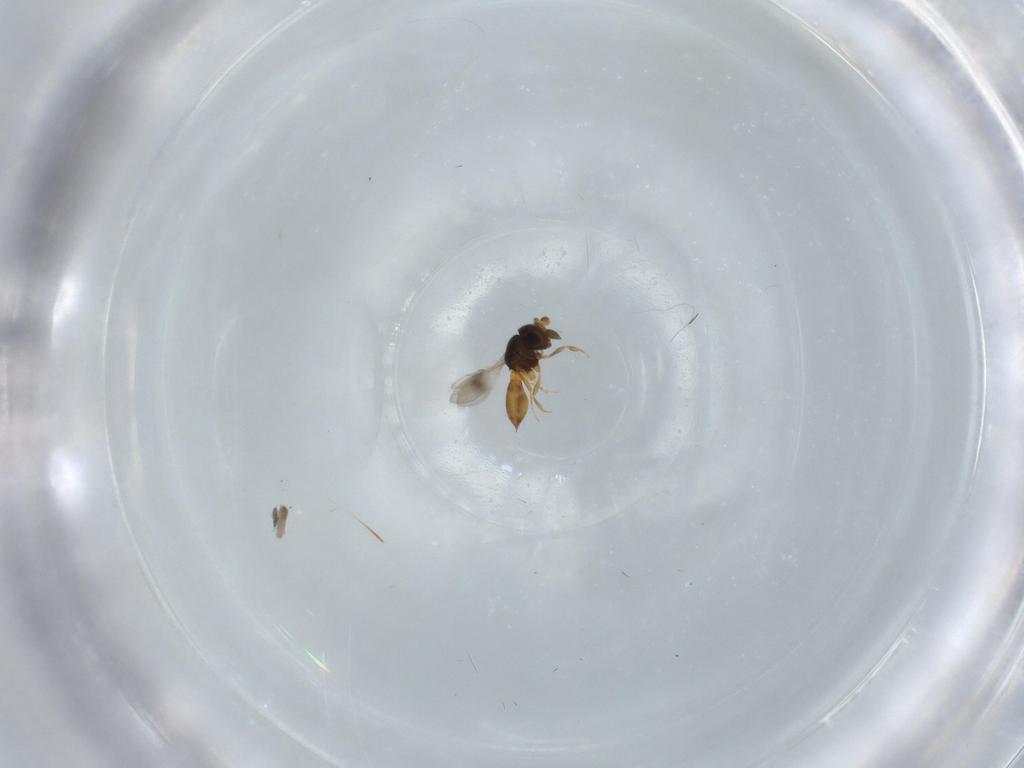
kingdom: Animalia
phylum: Arthropoda
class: Insecta
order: Hymenoptera
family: Scelionidae
